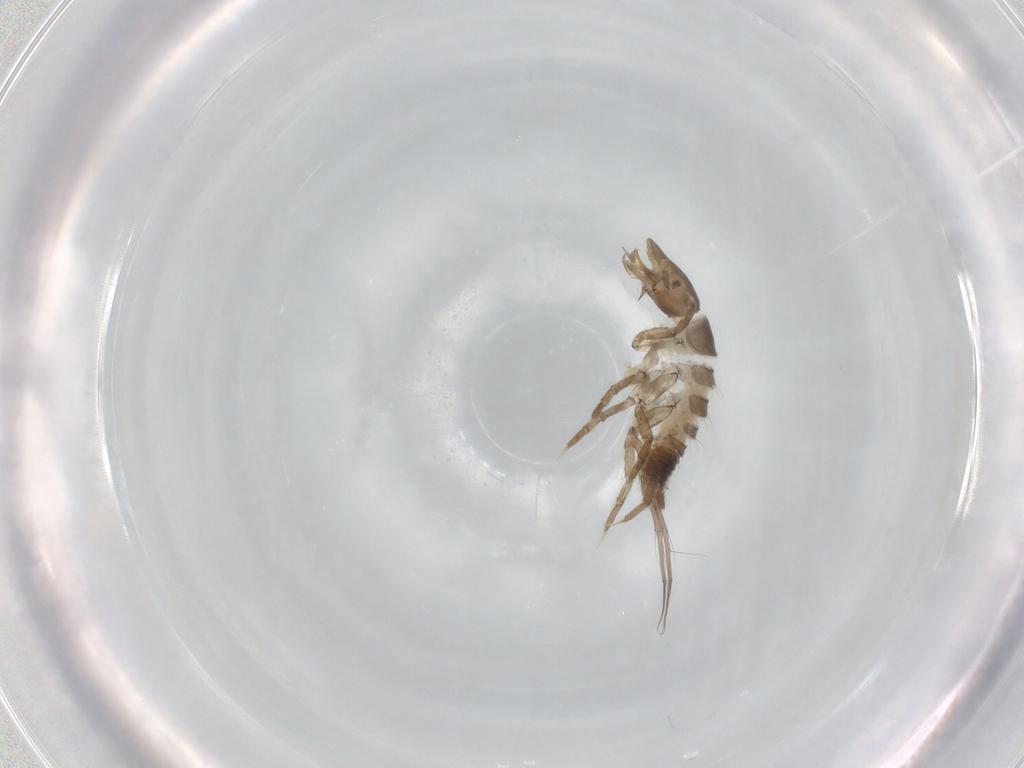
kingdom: Animalia
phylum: Arthropoda
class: Insecta
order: Coleoptera
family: Dytiscidae
